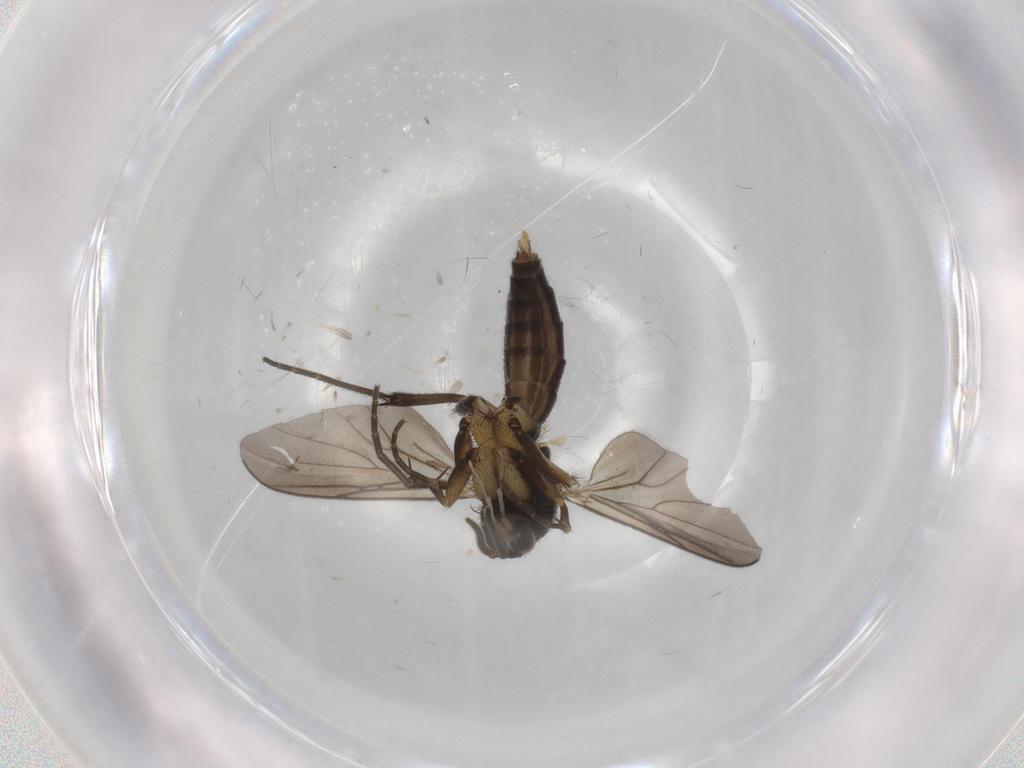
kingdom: Animalia
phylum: Arthropoda
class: Insecta
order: Diptera
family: Mycetophilidae
